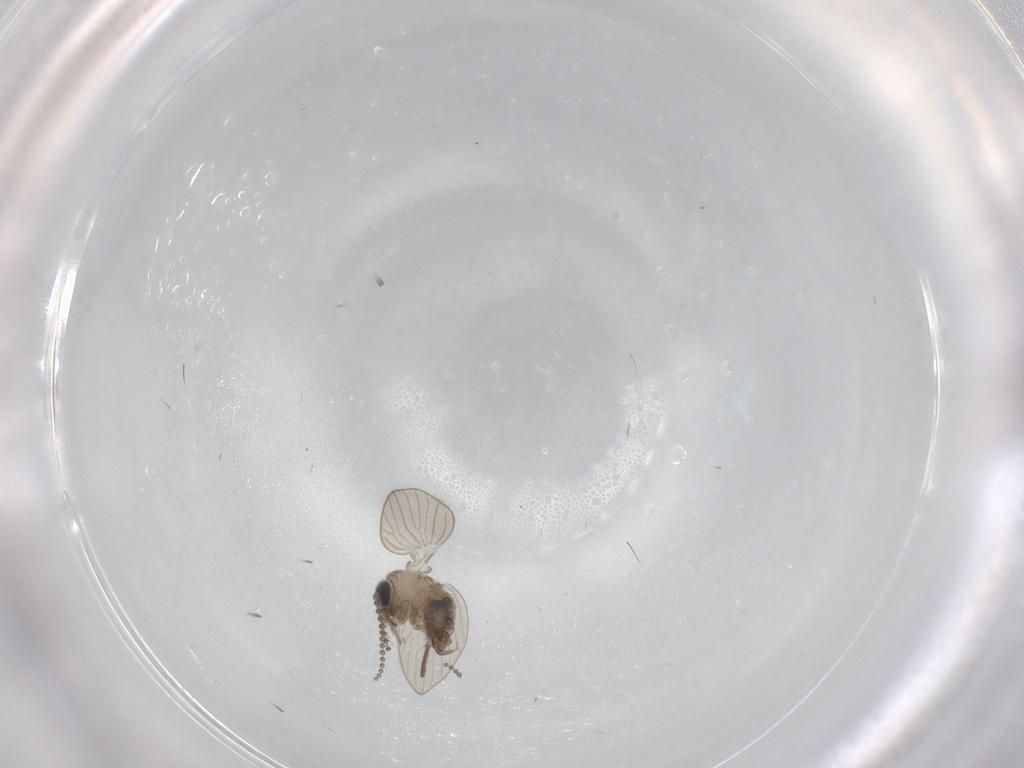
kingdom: Animalia
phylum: Arthropoda
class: Insecta
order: Diptera
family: Psychodidae
